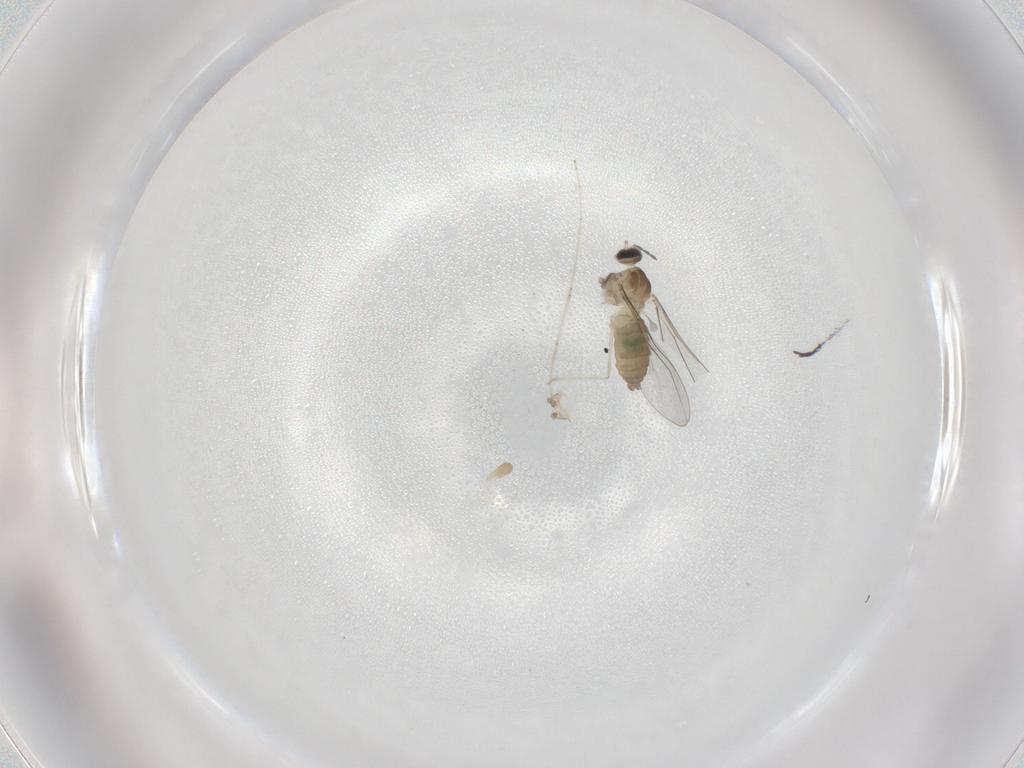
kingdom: Animalia
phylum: Arthropoda
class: Insecta
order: Diptera
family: Cecidomyiidae
